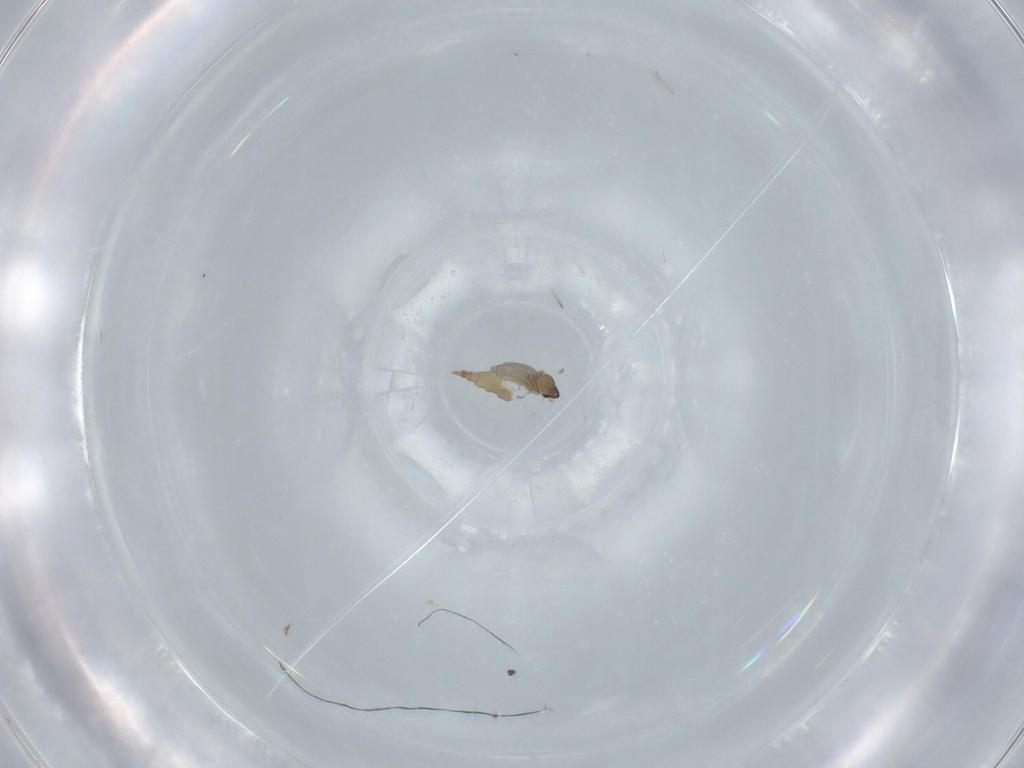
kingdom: Animalia
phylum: Arthropoda
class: Insecta
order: Diptera
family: Cecidomyiidae
